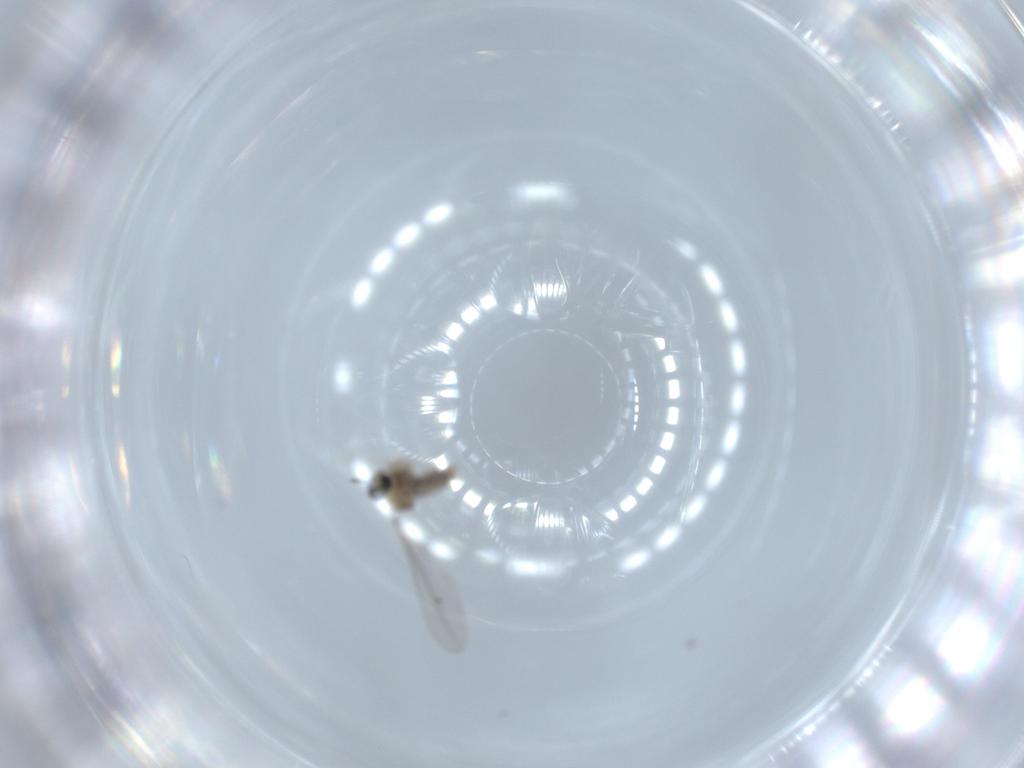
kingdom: Animalia
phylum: Arthropoda
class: Insecta
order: Diptera
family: Cecidomyiidae
